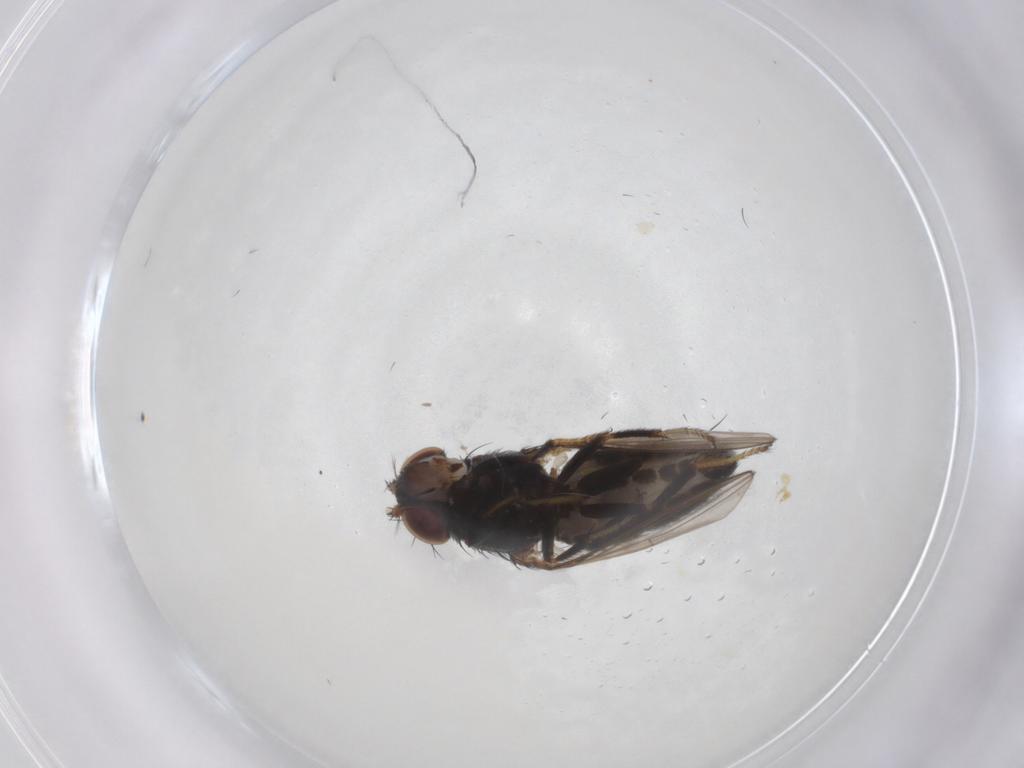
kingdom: Animalia
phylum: Arthropoda
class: Insecta
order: Diptera
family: Ephydridae
